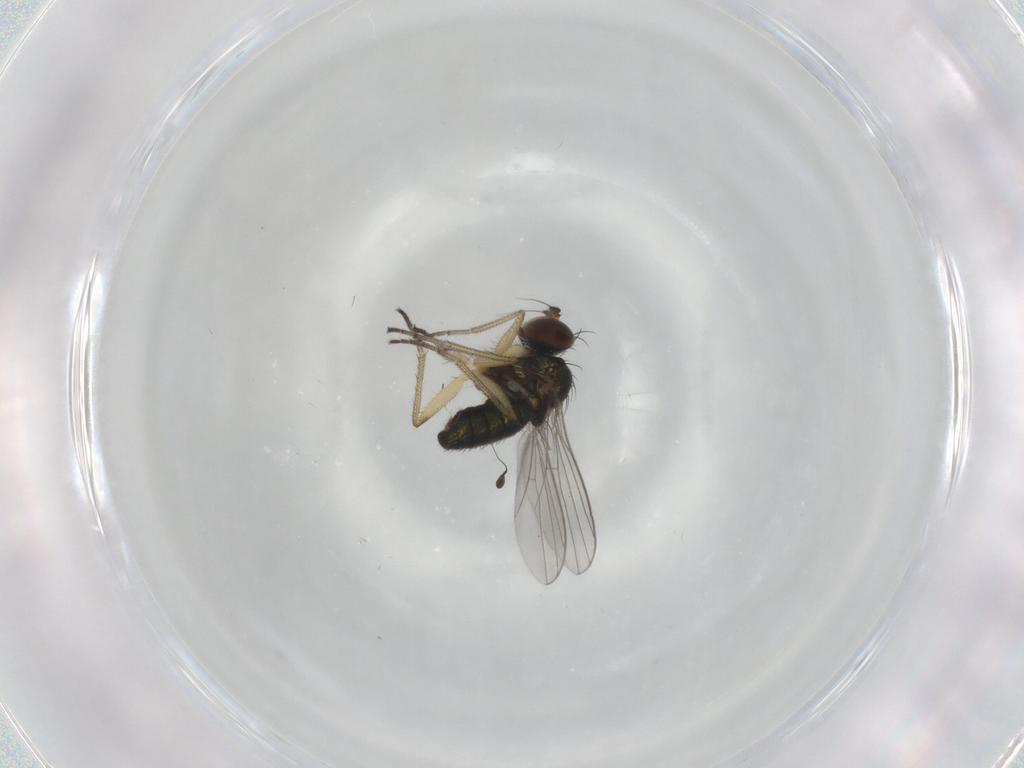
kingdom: Animalia
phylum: Arthropoda
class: Insecta
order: Diptera
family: Dolichopodidae
